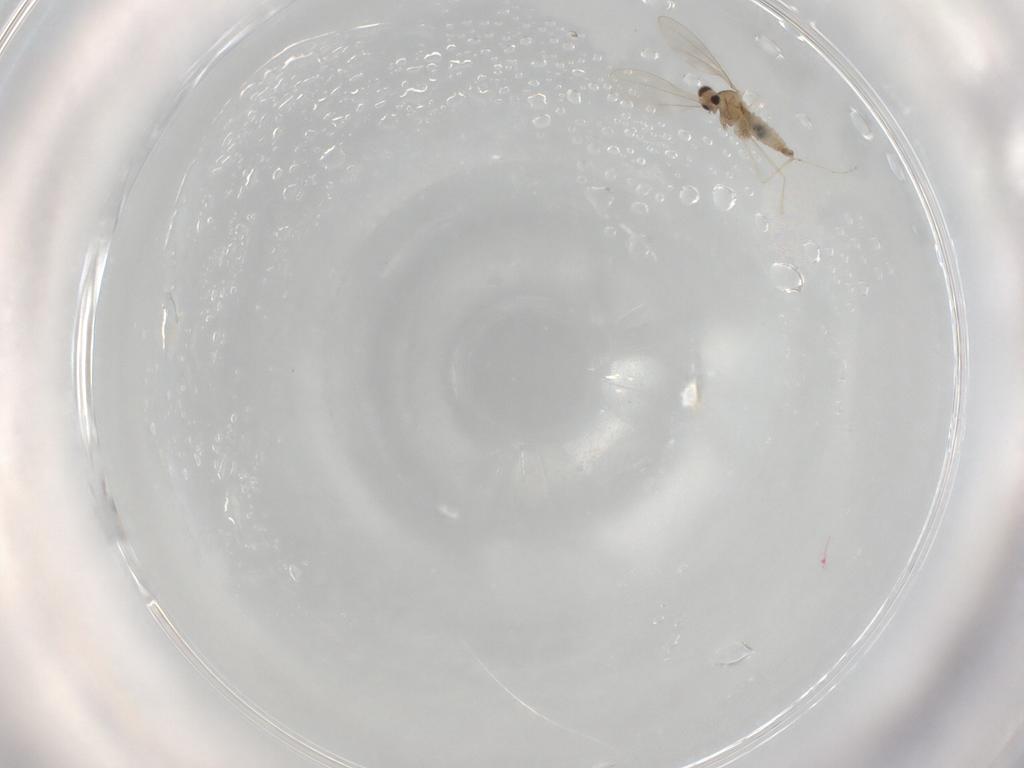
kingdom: Animalia
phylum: Arthropoda
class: Insecta
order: Diptera
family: Cecidomyiidae
